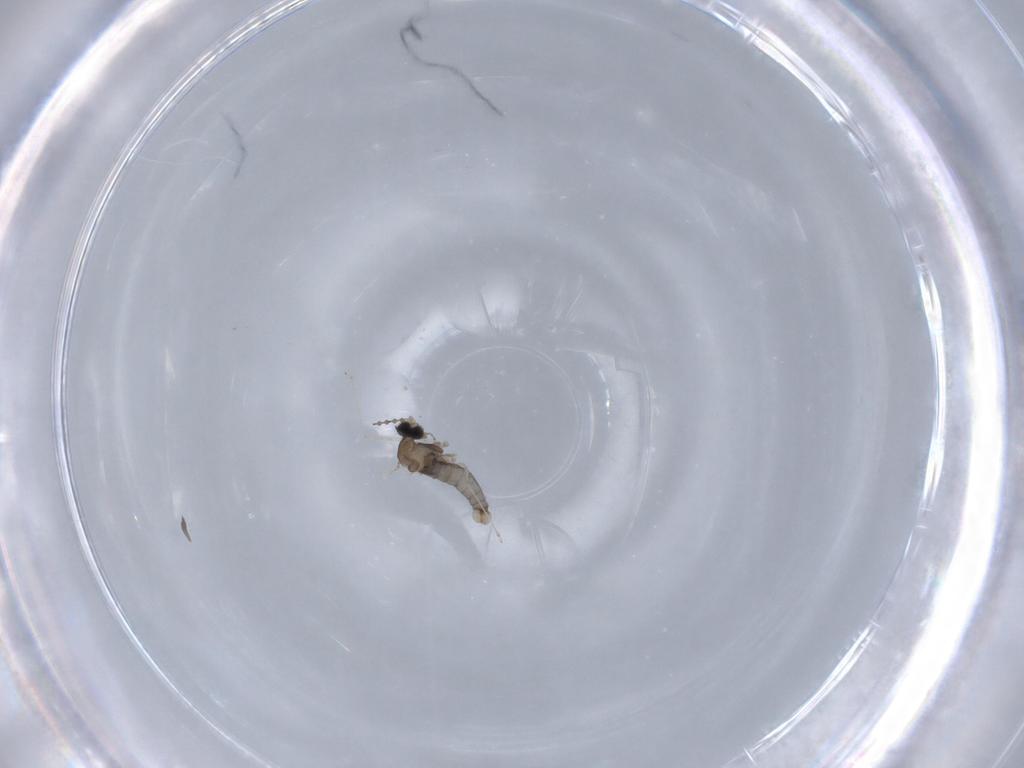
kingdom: Animalia
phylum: Arthropoda
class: Insecta
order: Diptera
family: Cecidomyiidae
